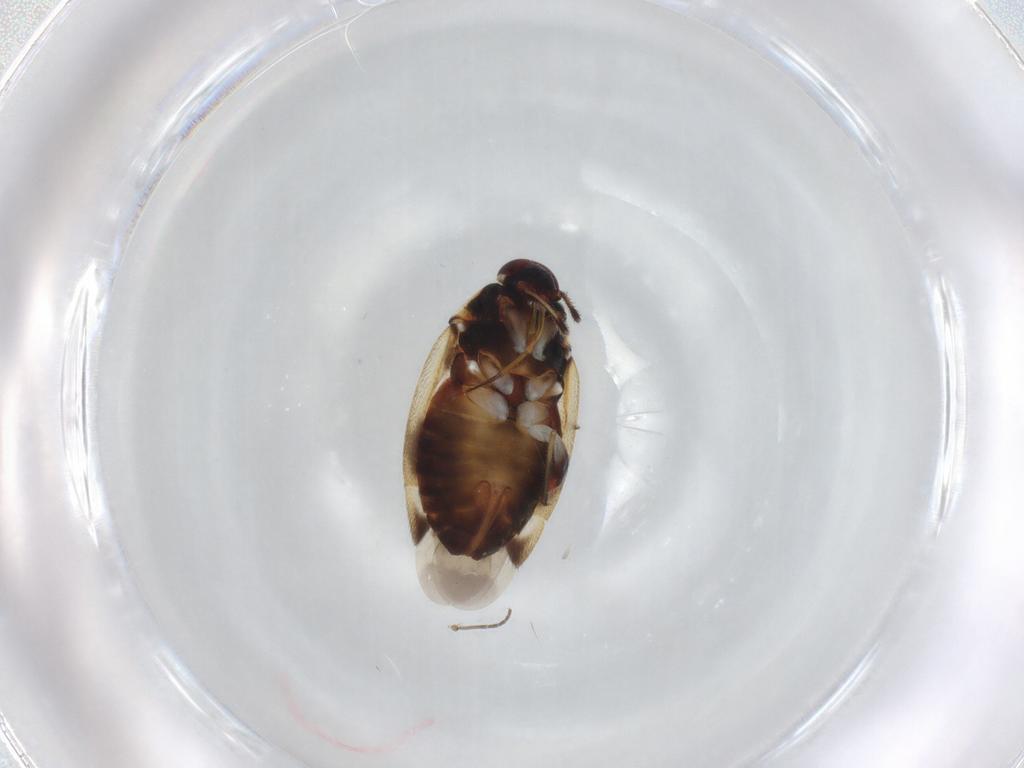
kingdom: Animalia
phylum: Arthropoda
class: Insecta
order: Hemiptera
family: Miridae
